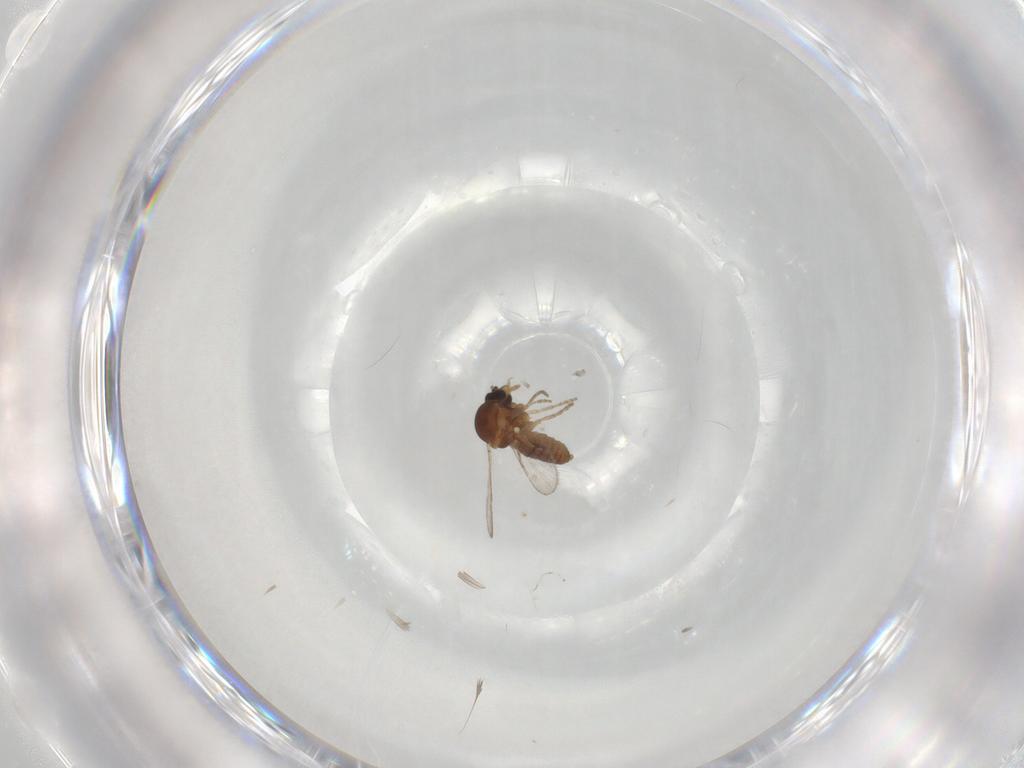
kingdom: Animalia
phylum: Arthropoda
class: Insecta
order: Diptera
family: Ceratopogonidae
